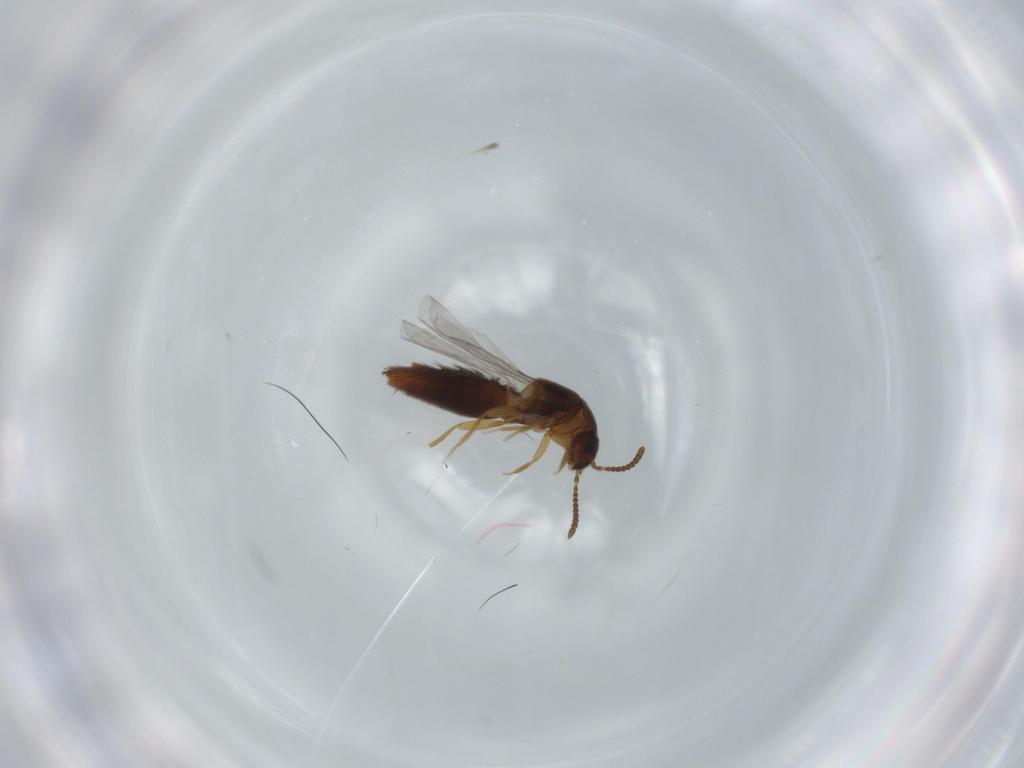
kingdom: Animalia
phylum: Arthropoda
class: Insecta
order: Coleoptera
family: Staphylinidae
